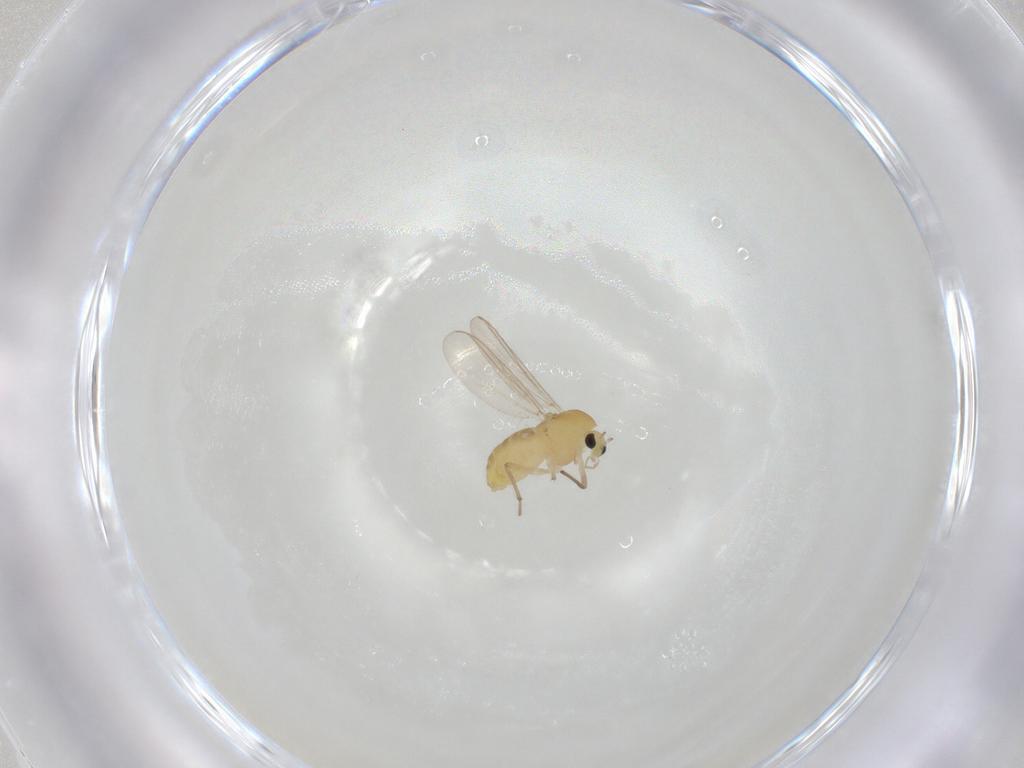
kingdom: Animalia
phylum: Arthropoda
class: Insecta
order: Diptera
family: Chironomidae
